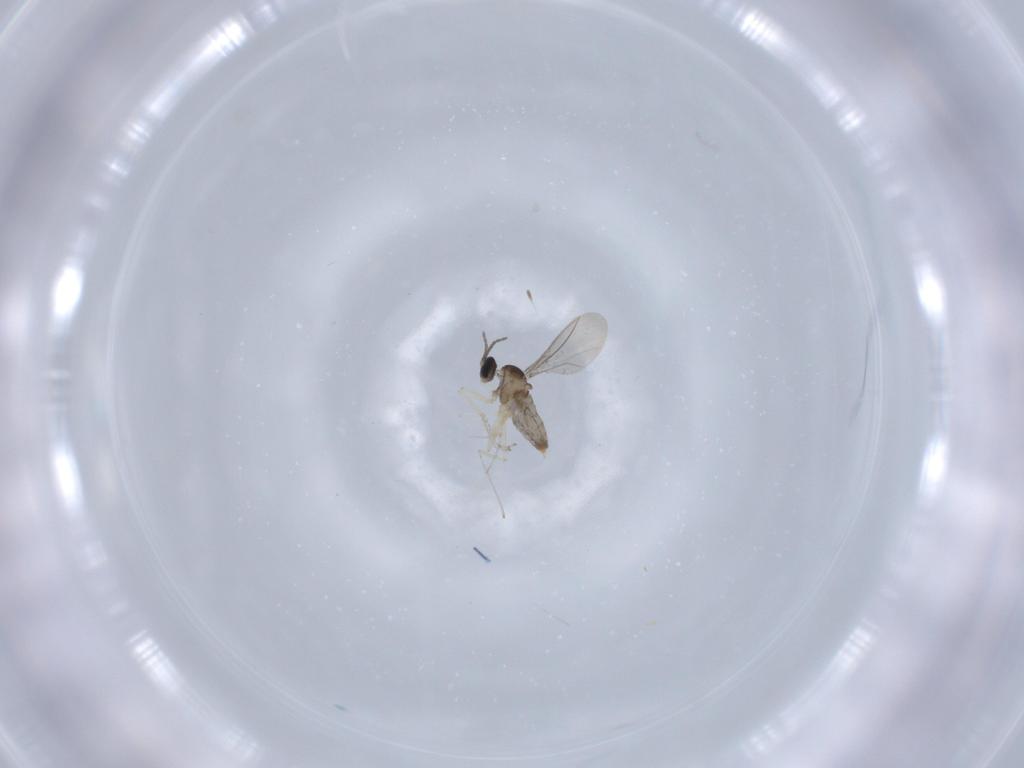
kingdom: Animalia
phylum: Arthropoda
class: Insecta
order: Diptera
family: Cecidomyiidae
